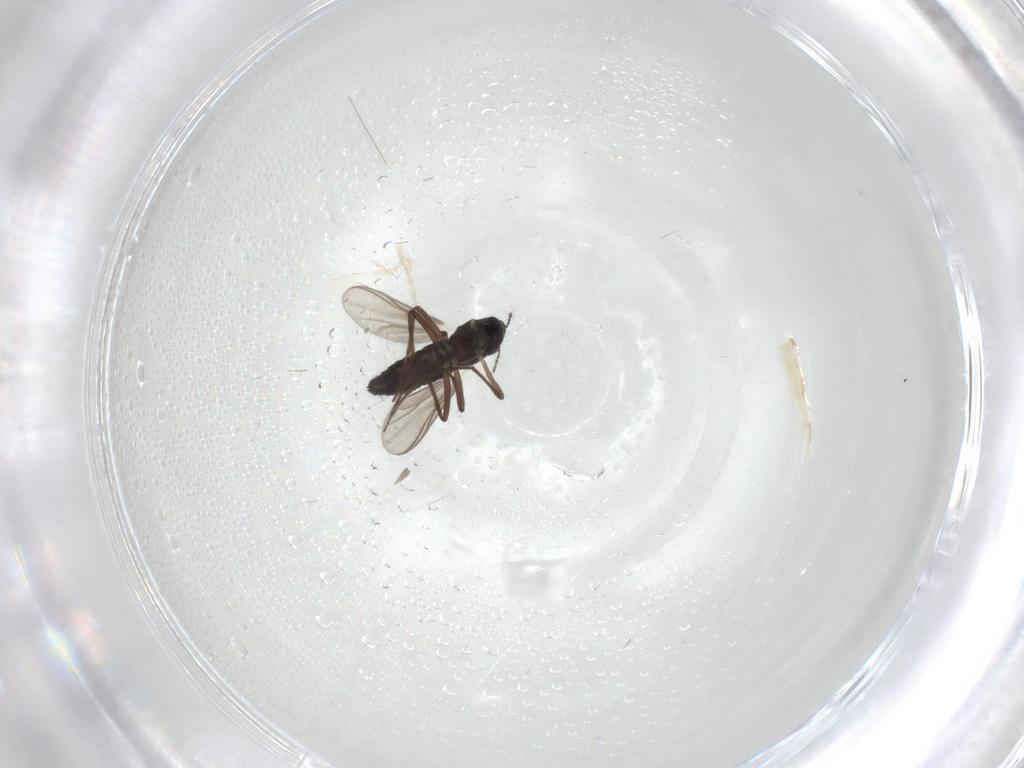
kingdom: Animalia
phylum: Arthropoda
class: Insecta
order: Diptera
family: Chironomidae
